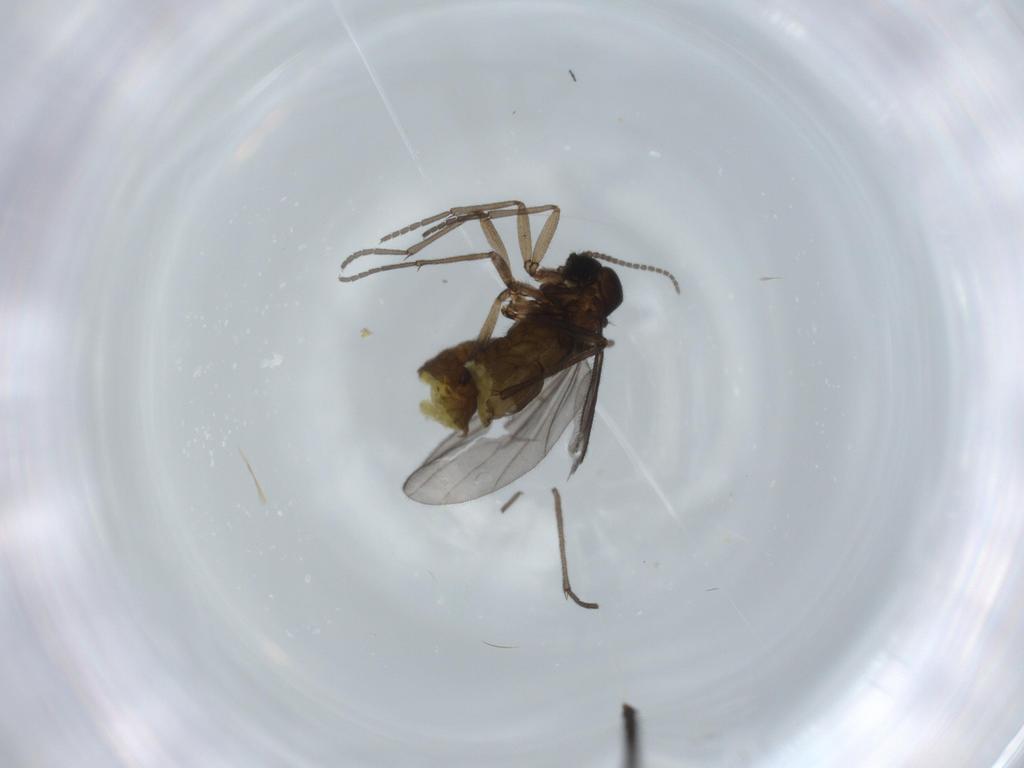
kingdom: Animalia
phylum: Arthropoda
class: Insecta
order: Diptera
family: Sciaridae
